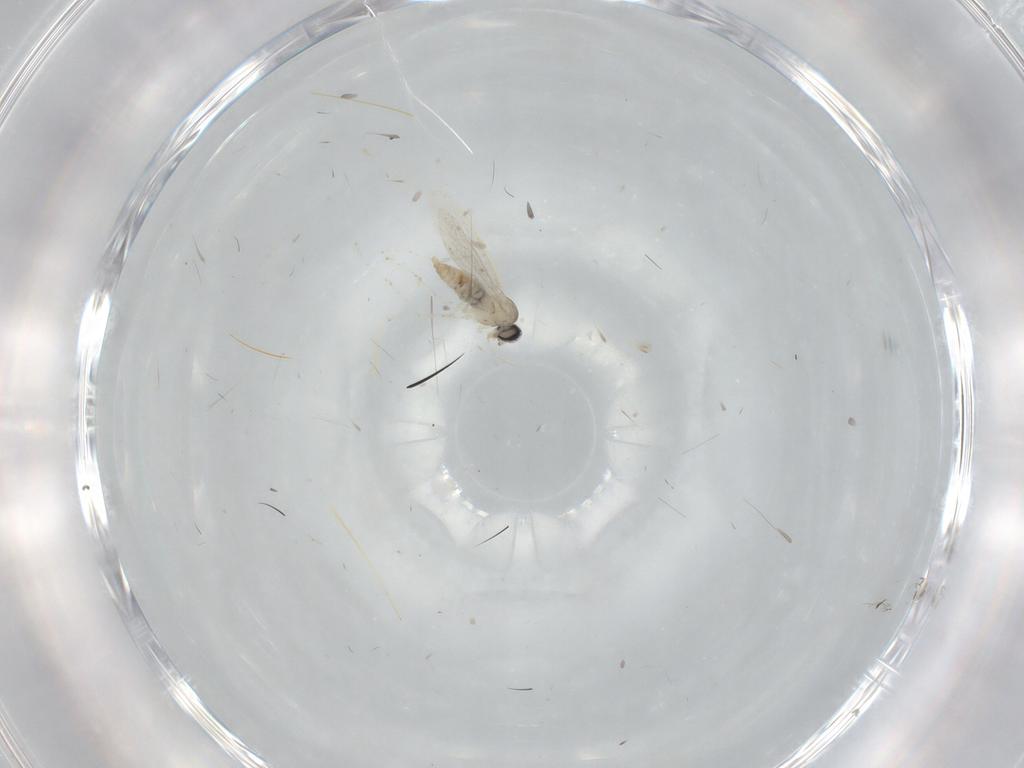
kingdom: Animalia
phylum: Arthropoda
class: Insecta
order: Diptera
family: Cecidomyiidae
